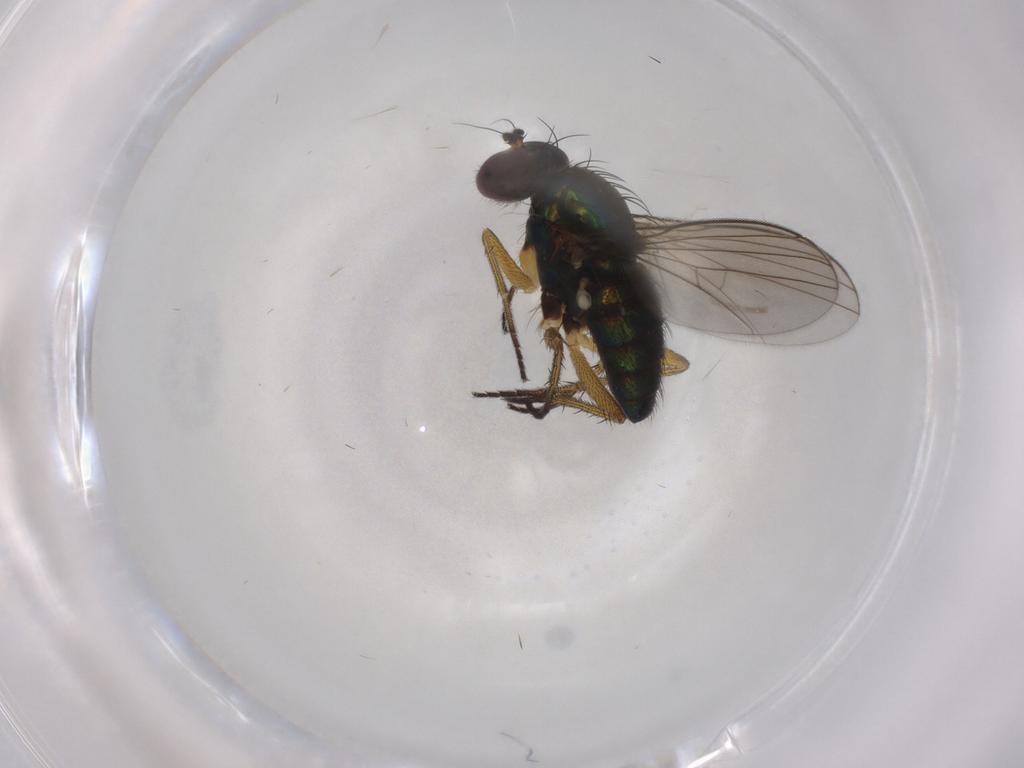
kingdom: Animalia
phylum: Arthropoda
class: Insecta
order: Diptera
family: Dolichopodidae
